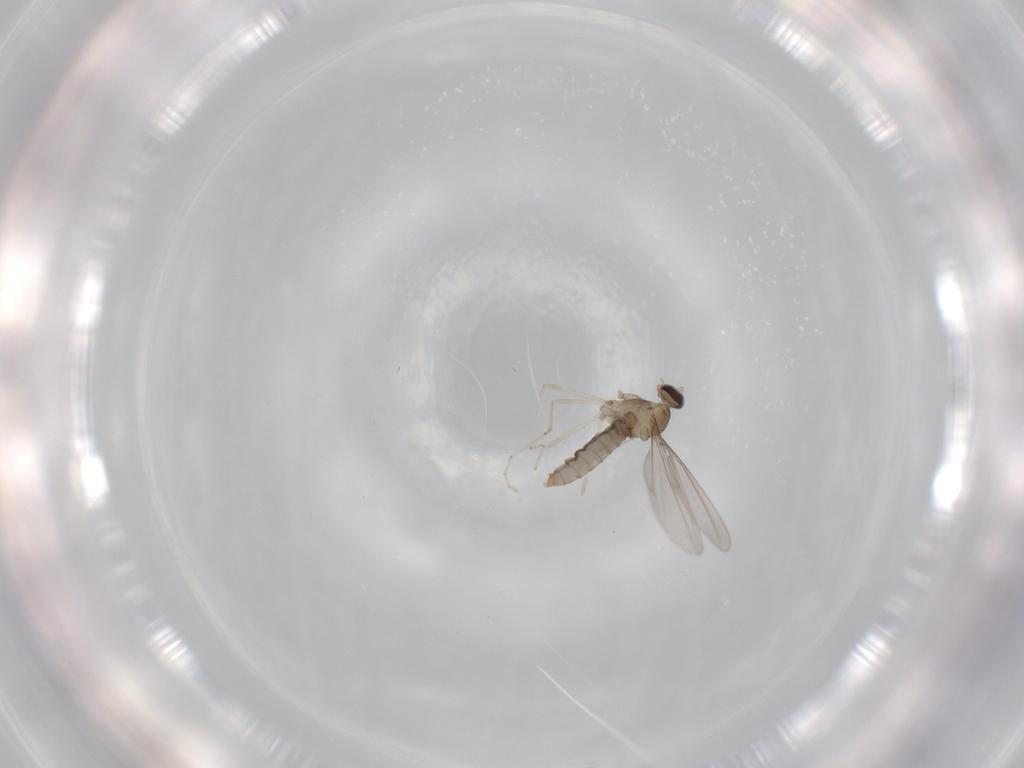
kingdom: Animalia
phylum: Arthropoda
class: Insecta
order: Diptera
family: Cecidomyiidae
